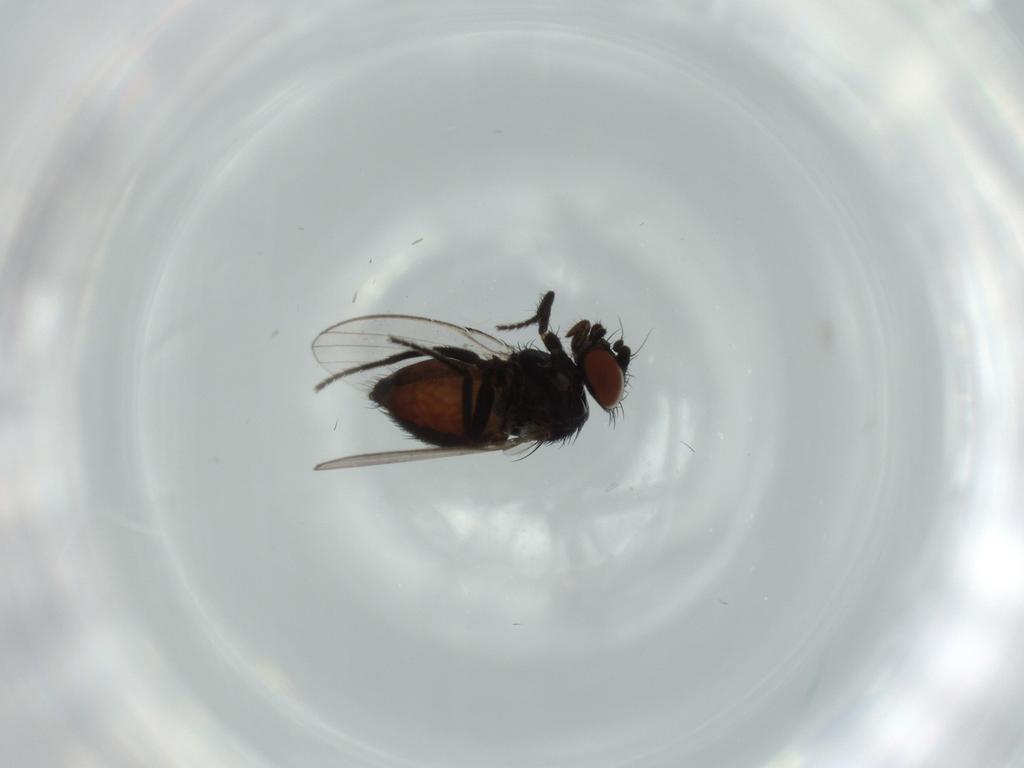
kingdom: Animalia
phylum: Arthropoda
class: Insecta
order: Diptera
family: Milichiidae
